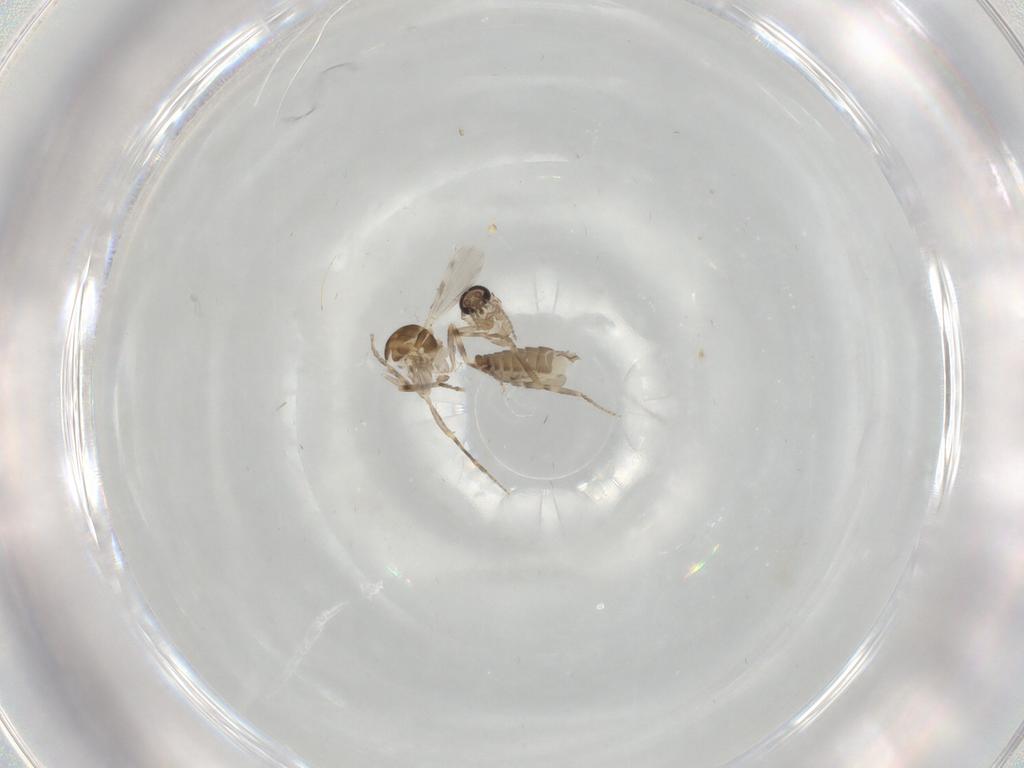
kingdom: Animalia
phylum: Arthropoda
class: Insecta
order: Diptera
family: Ceratopogonidae
